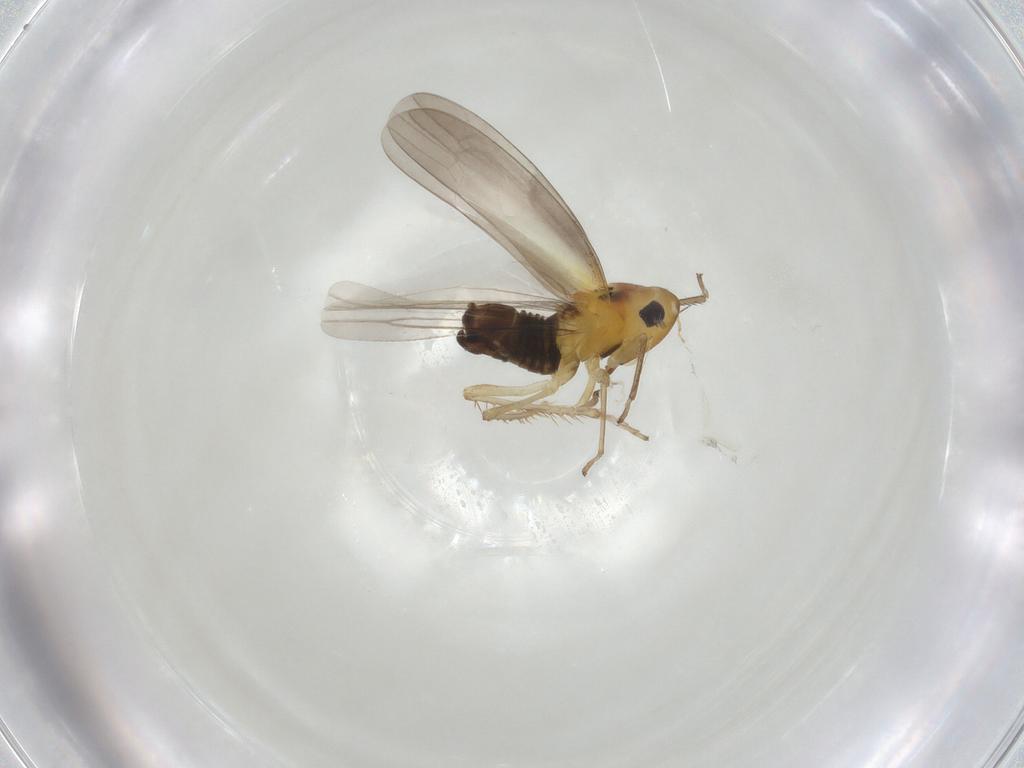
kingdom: Animalia
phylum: Arthropoda
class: Insecta
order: Hemiptera
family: Cicadellidae
